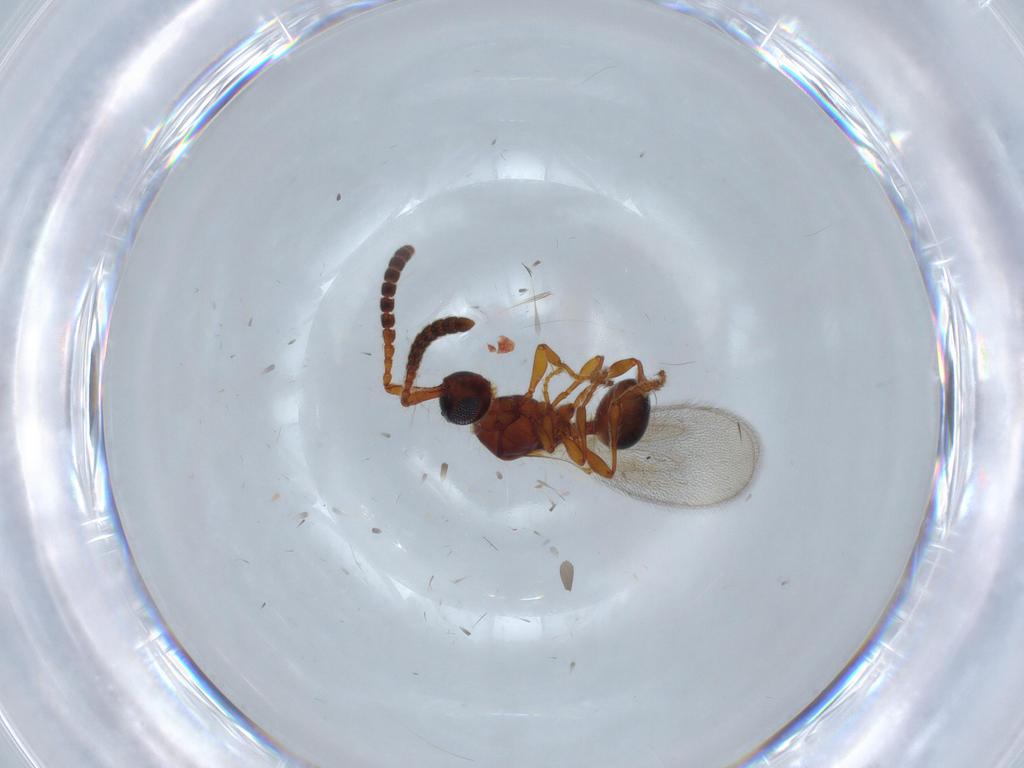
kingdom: Animalia
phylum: Arthropoda
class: Insecta
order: Hymenoptera
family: Diapriidae
